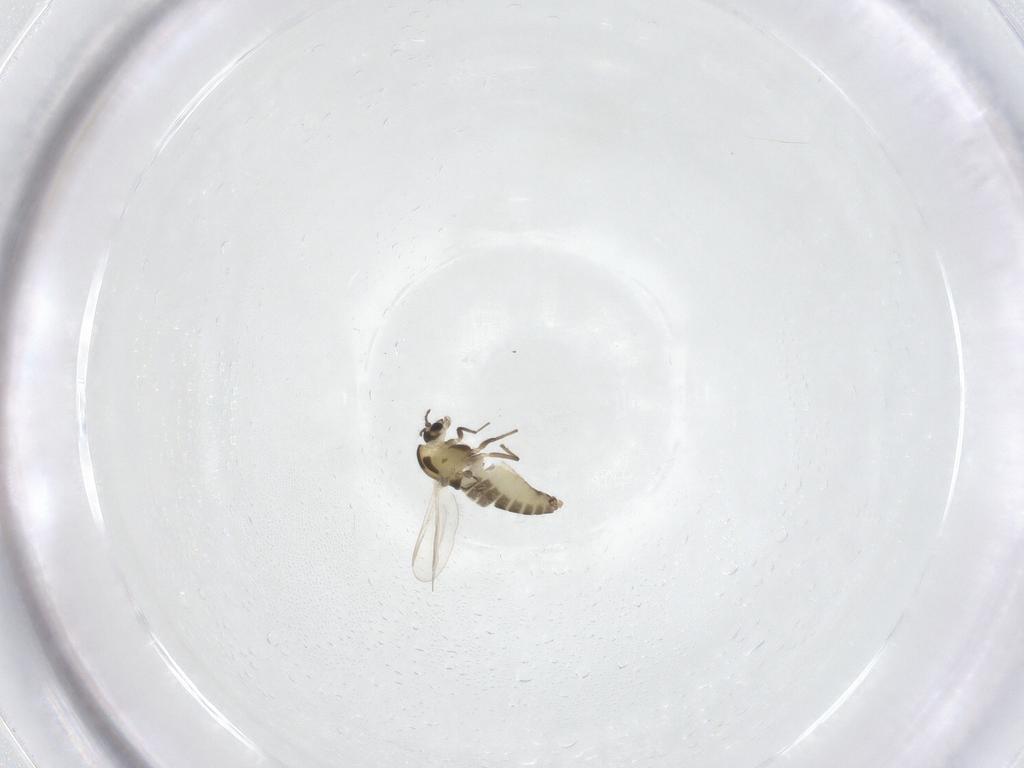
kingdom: Animalia
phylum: Arthropoda
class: Insecta
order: Diptera
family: Chironomidae
